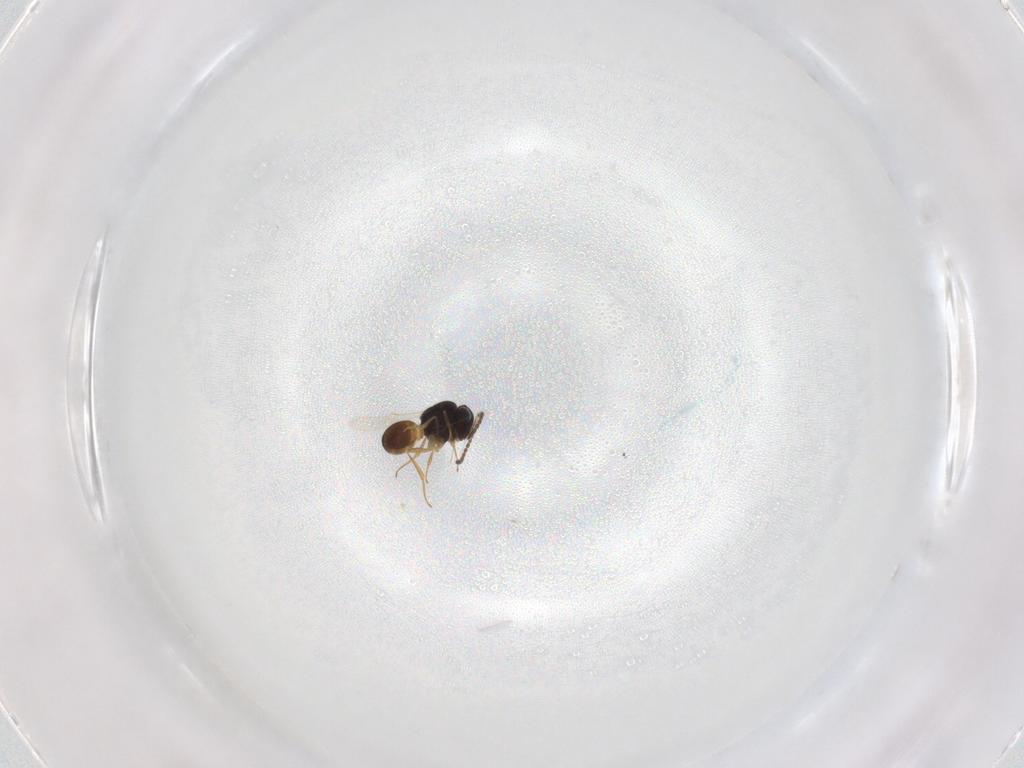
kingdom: Animalia
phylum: Arthropoda
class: Insecta
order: Hymenoptera
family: Scelionidae
